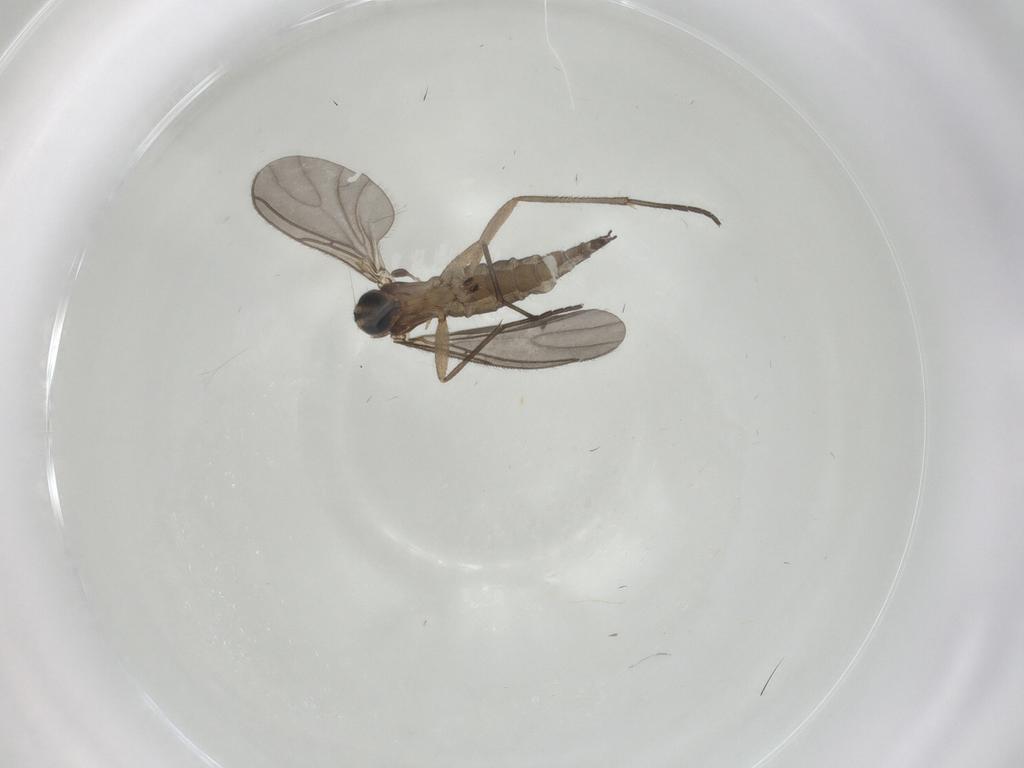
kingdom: Animalia
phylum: Arthropoda
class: Insecta
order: Diptera
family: Sciaridae
